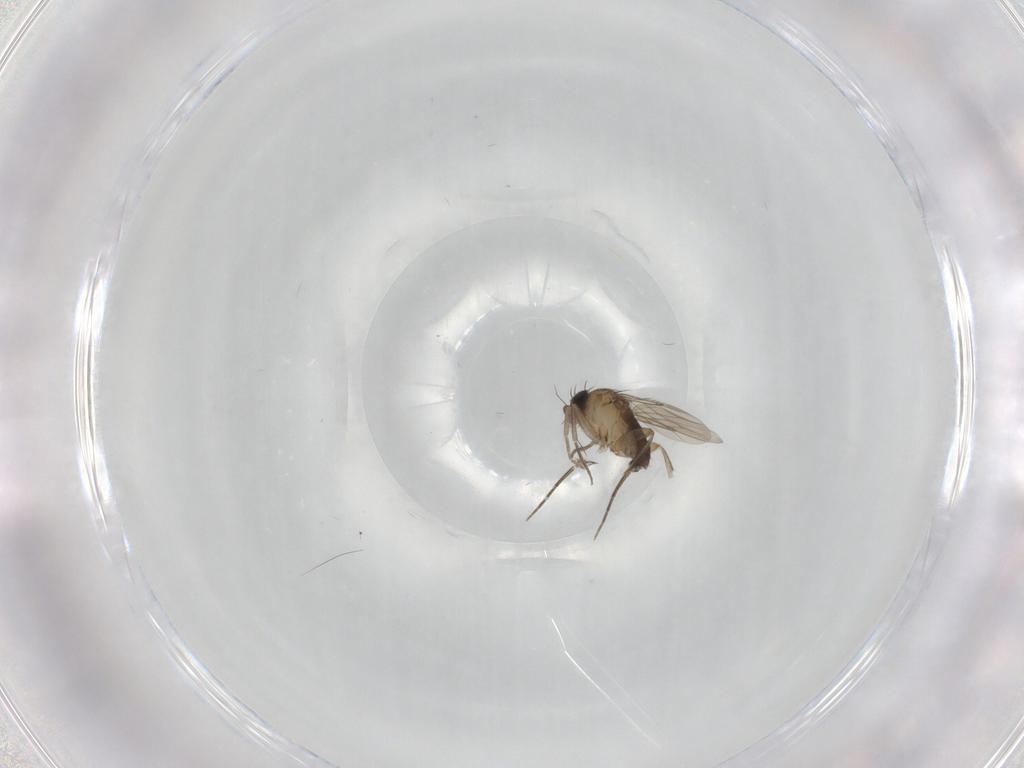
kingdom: Animalia
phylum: Arthropoda
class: Insecta
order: Diptera
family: Phoridae
